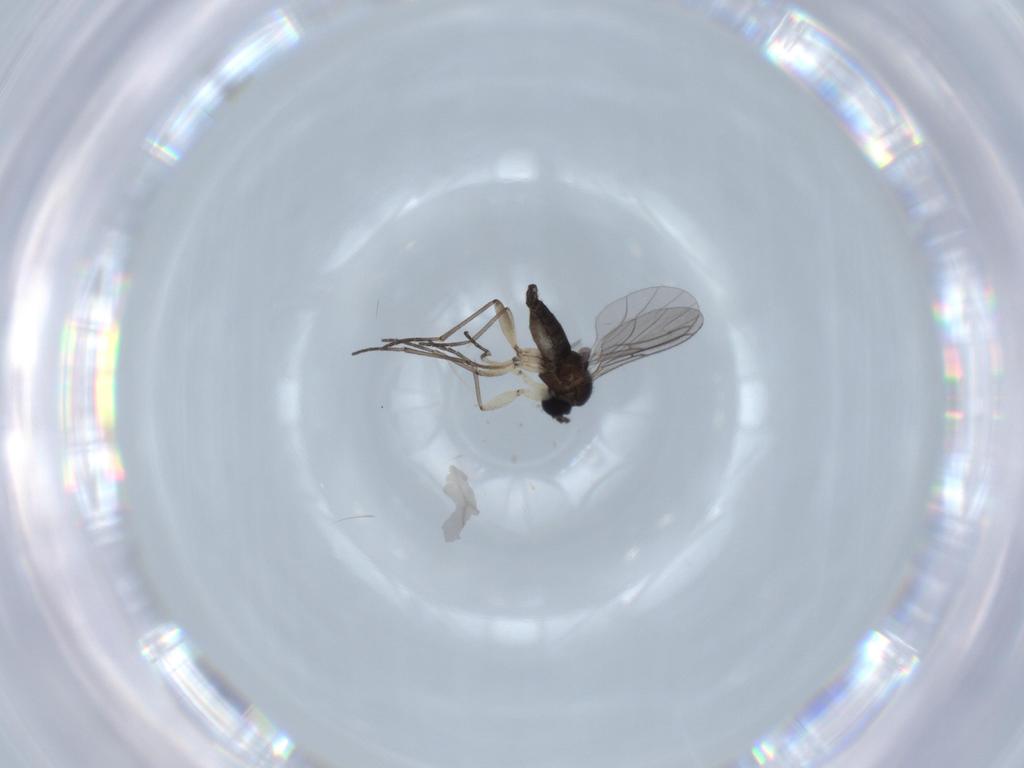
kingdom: Animalia
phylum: Arthropoda
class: Insecta
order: Diptera
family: Sciaridae
